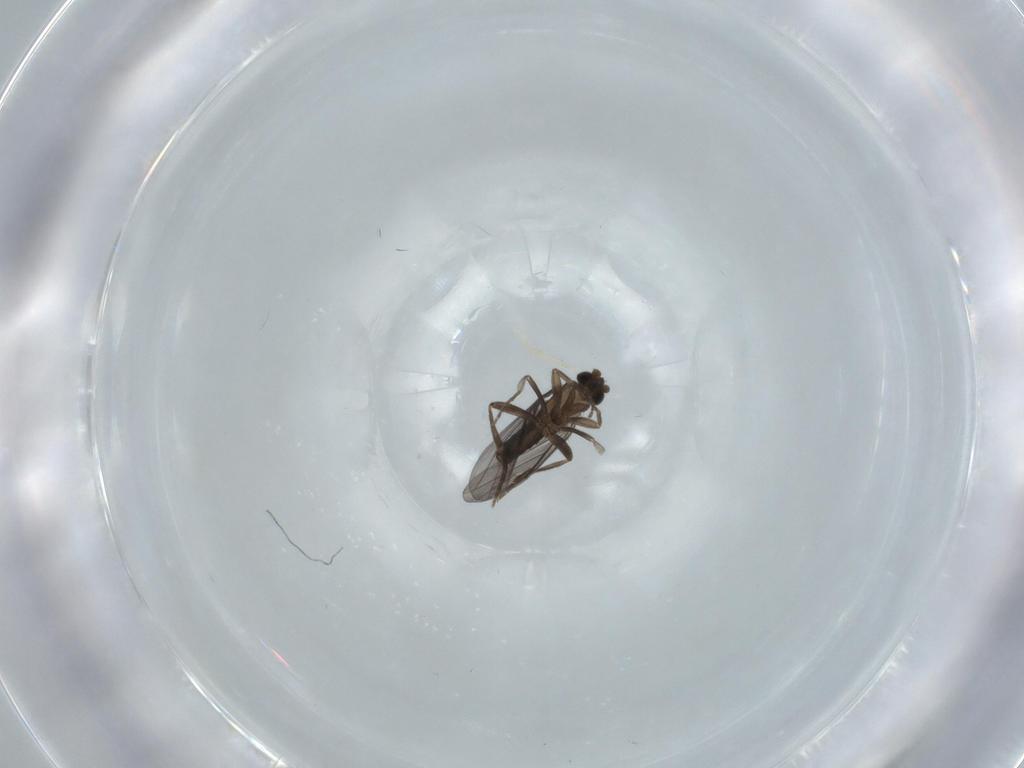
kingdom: Animalia
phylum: Arthropoda
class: Insecta
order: Diptera
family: Phoridae
